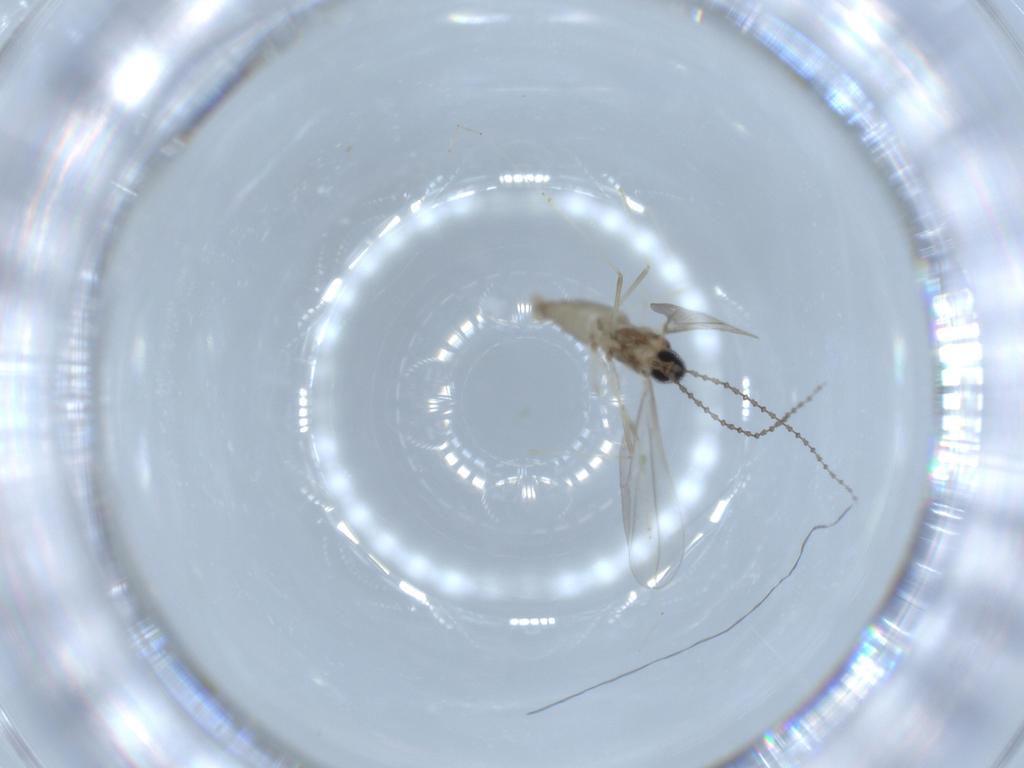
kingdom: Animalia
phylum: Arthropoda
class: Insecta
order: Diptera
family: Cecidomyiidae
